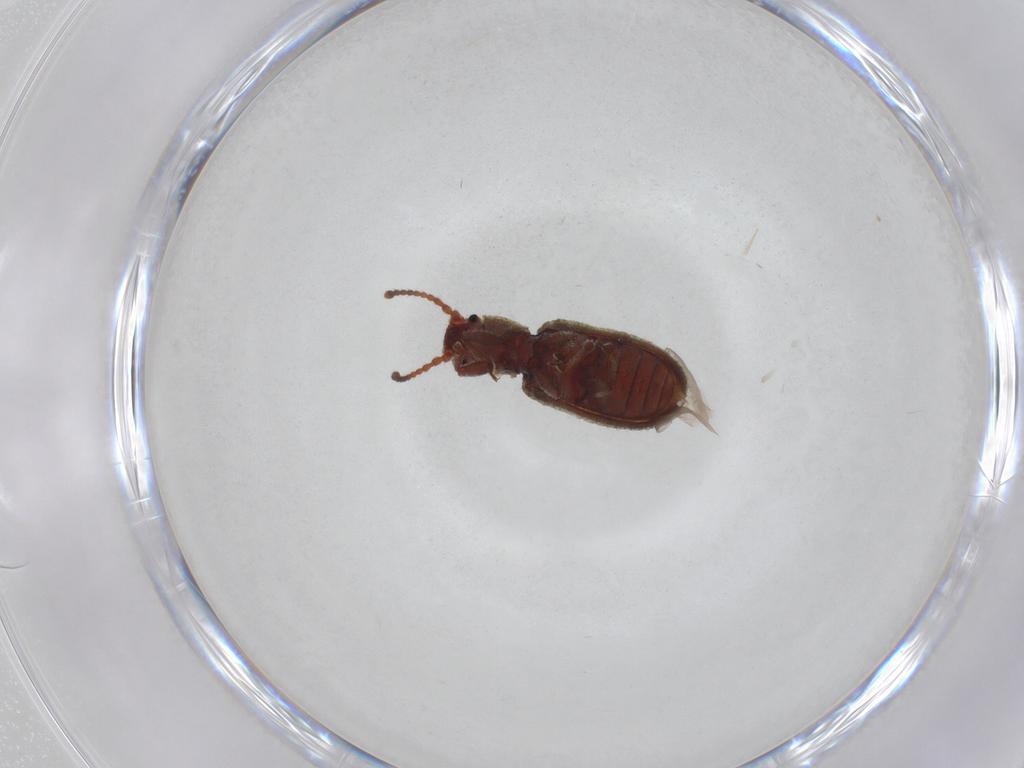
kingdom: Animalia
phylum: Arthropoda
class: Insecta
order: Coleoptera
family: Zopheridae
